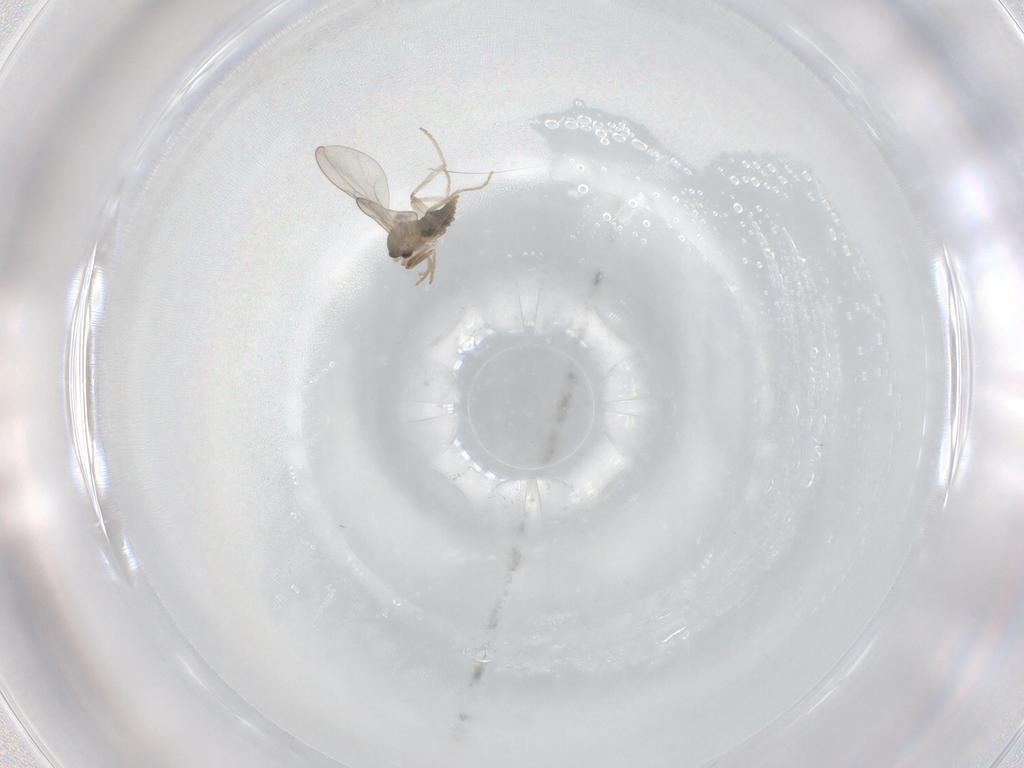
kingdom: Animalia
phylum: Arthropoda
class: Insecta
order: Diptera
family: Cecidomyiidae
